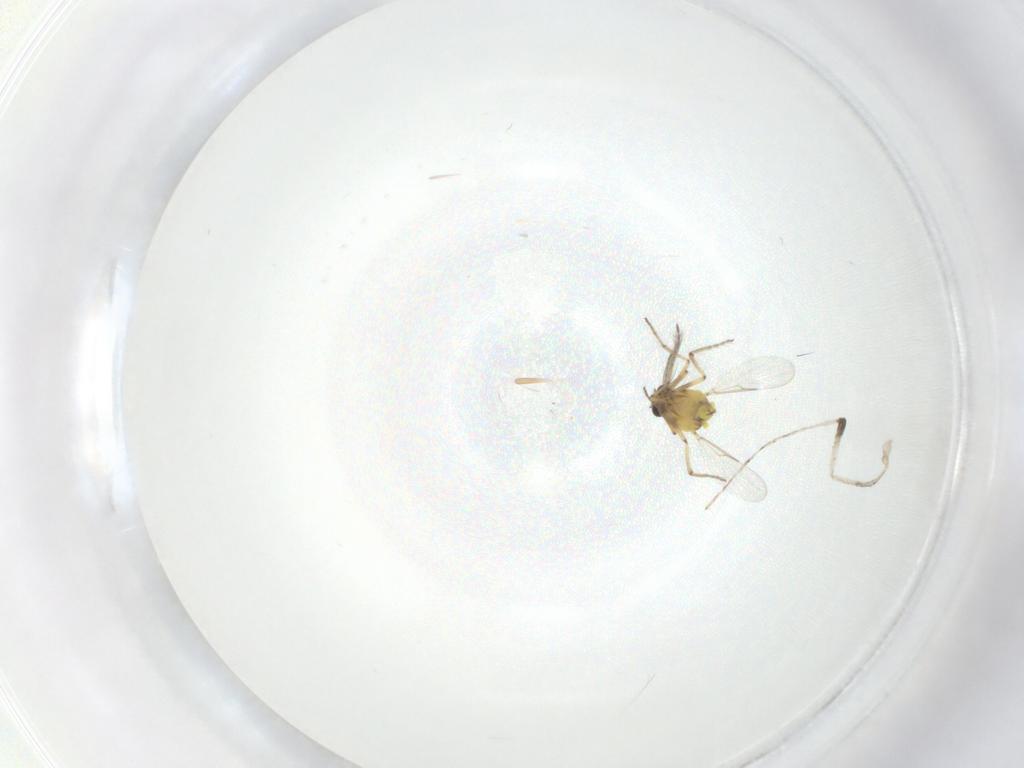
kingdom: Animalia
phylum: Arthropoda
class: Insecta
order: Diptera
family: Cecidomyiidae
